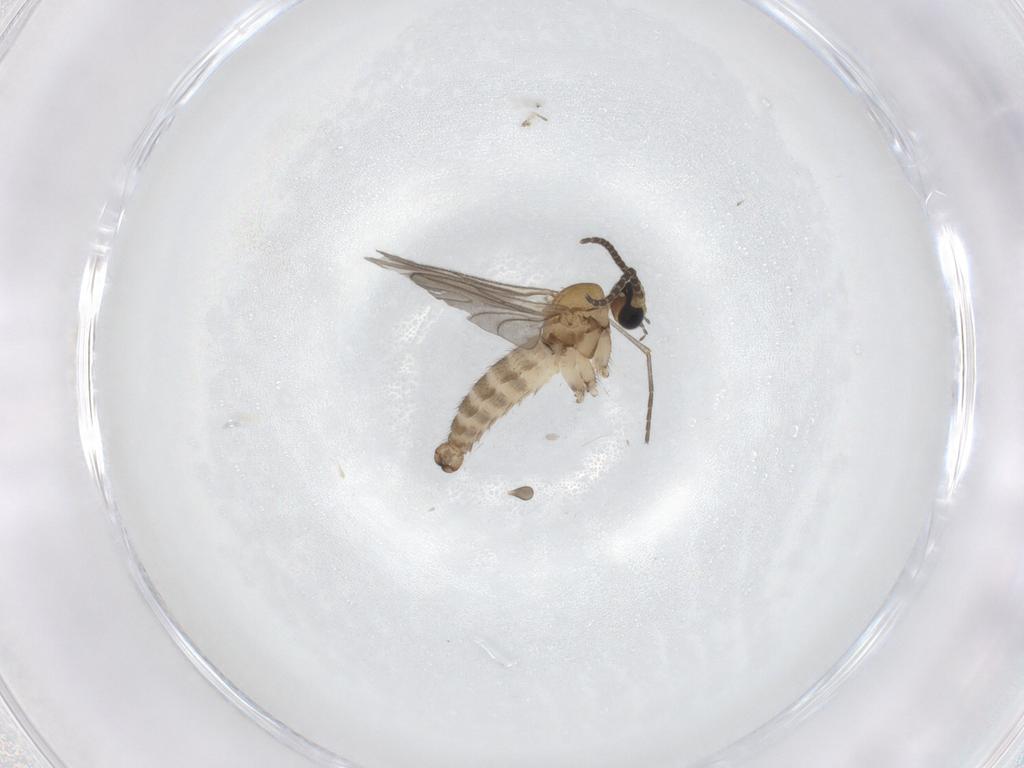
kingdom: Animalia
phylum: Arthropoda
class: Insecta
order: Diptera
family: Sciaridae
